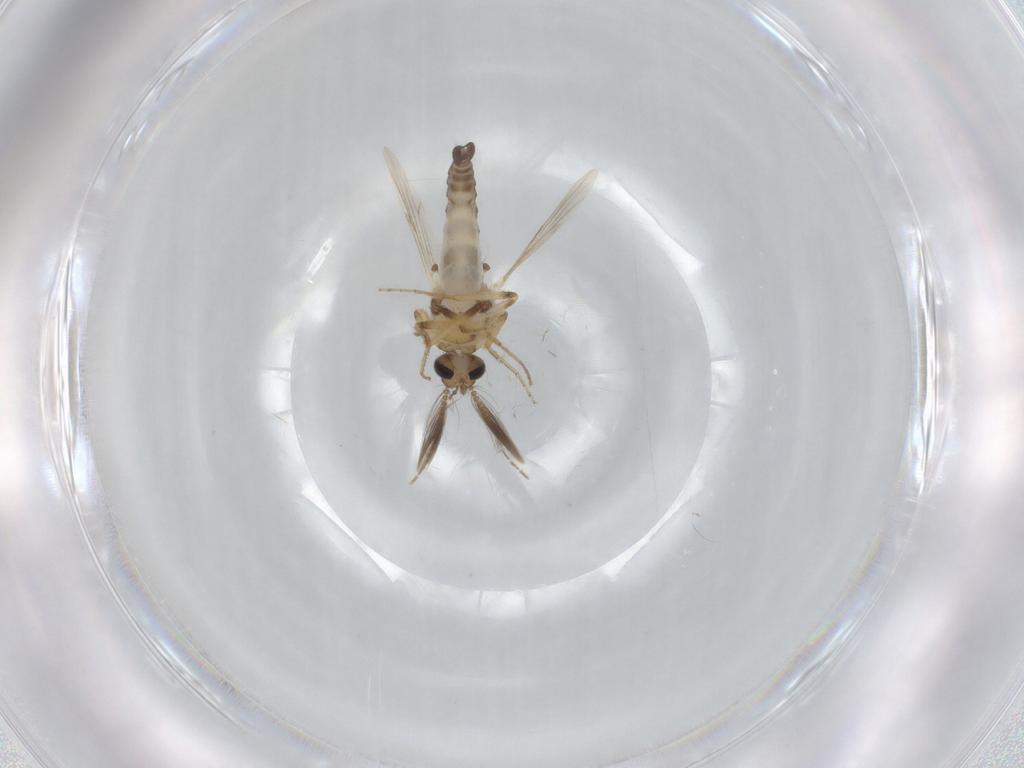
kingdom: Animalia
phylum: Arthropoda
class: Insecta
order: Diptera
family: Ceratopogonidae
